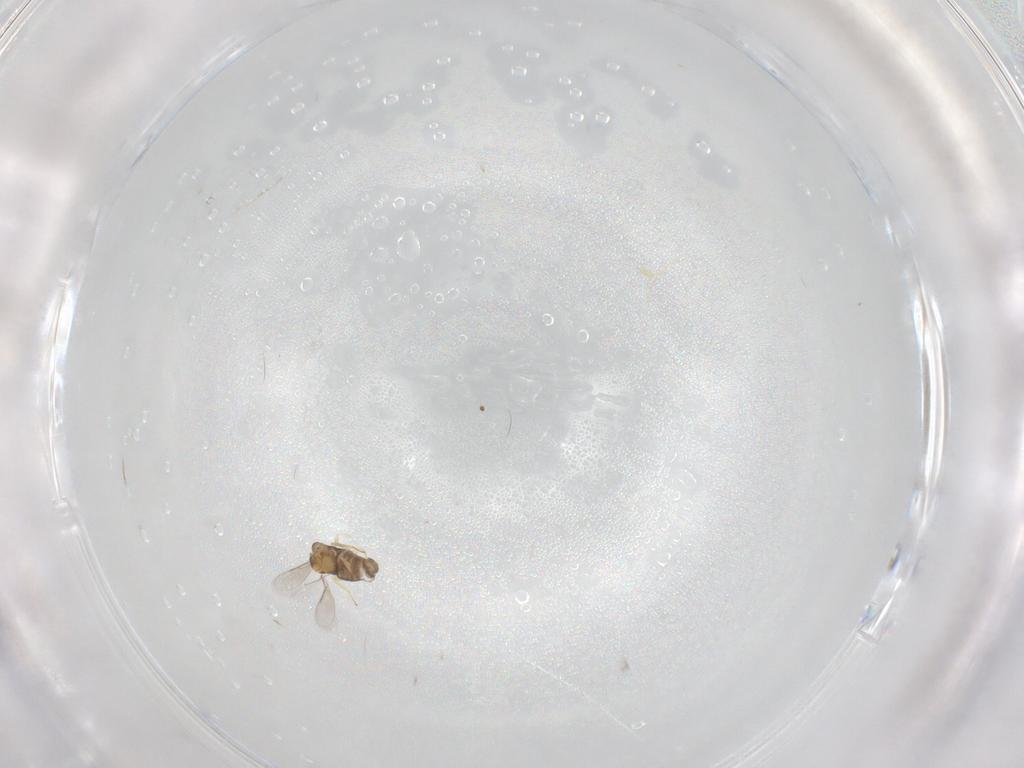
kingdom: Animalia
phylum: Arthropoda
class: Insecta
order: Hymenoptera
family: Aphelinidae
